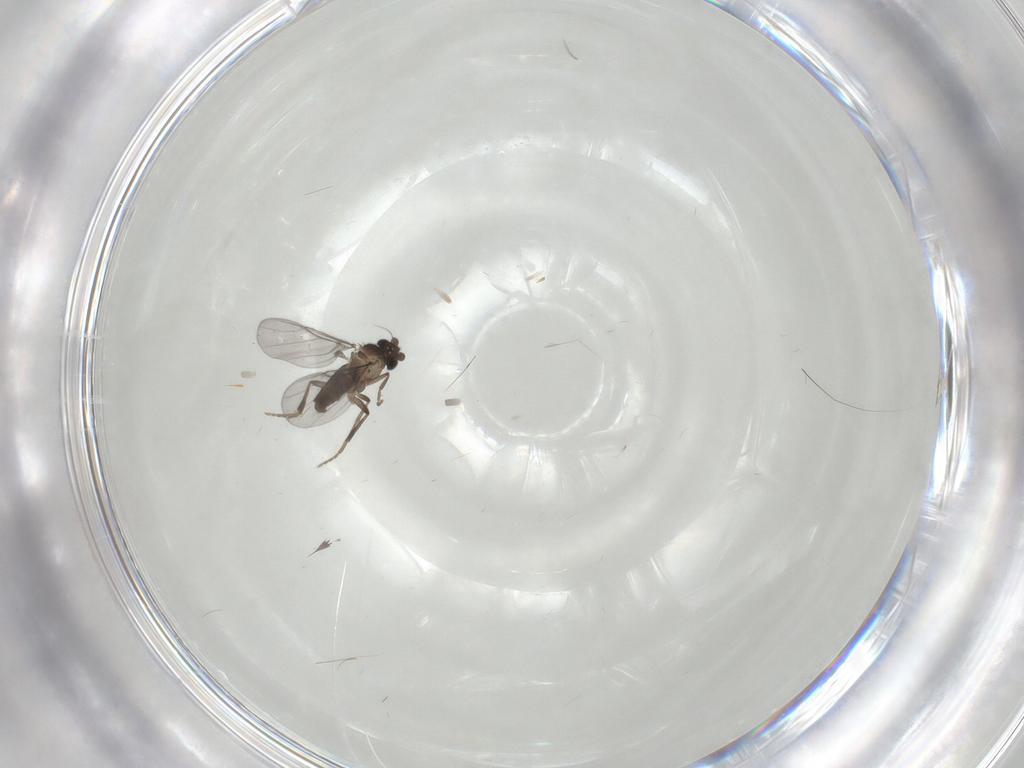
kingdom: Animalia
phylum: Arthropoda
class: Insecta
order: Diptera
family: Phoridae
